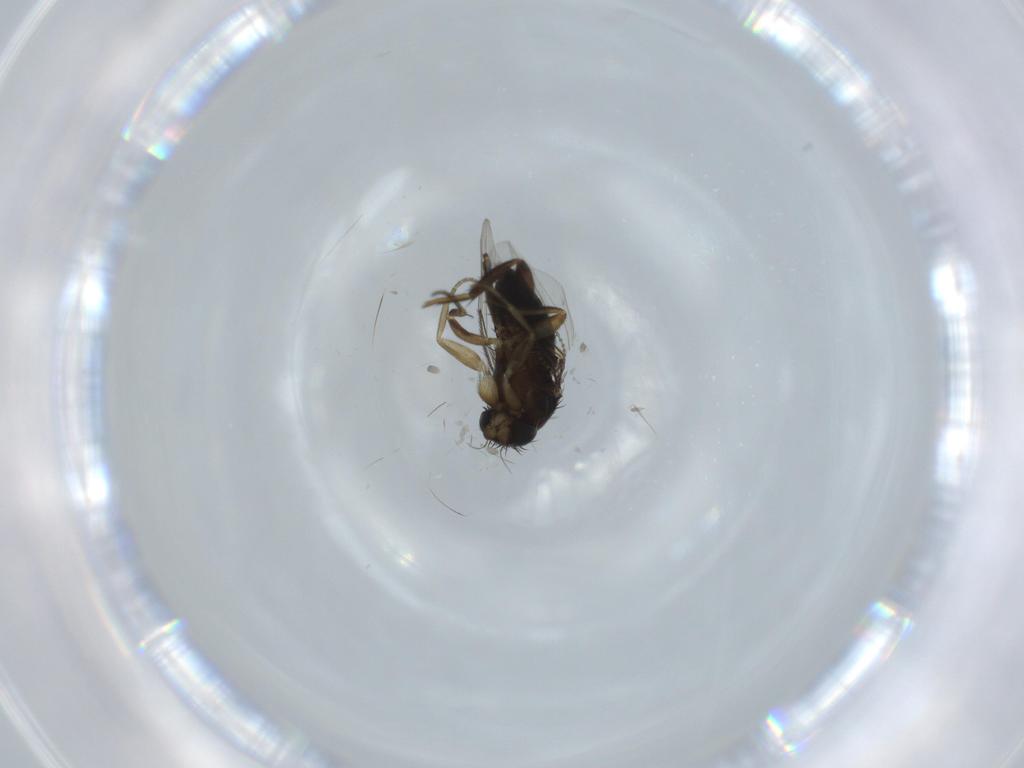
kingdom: Animalia
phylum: Arthropoda
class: Insecta
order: Diptera
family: Phoridae
